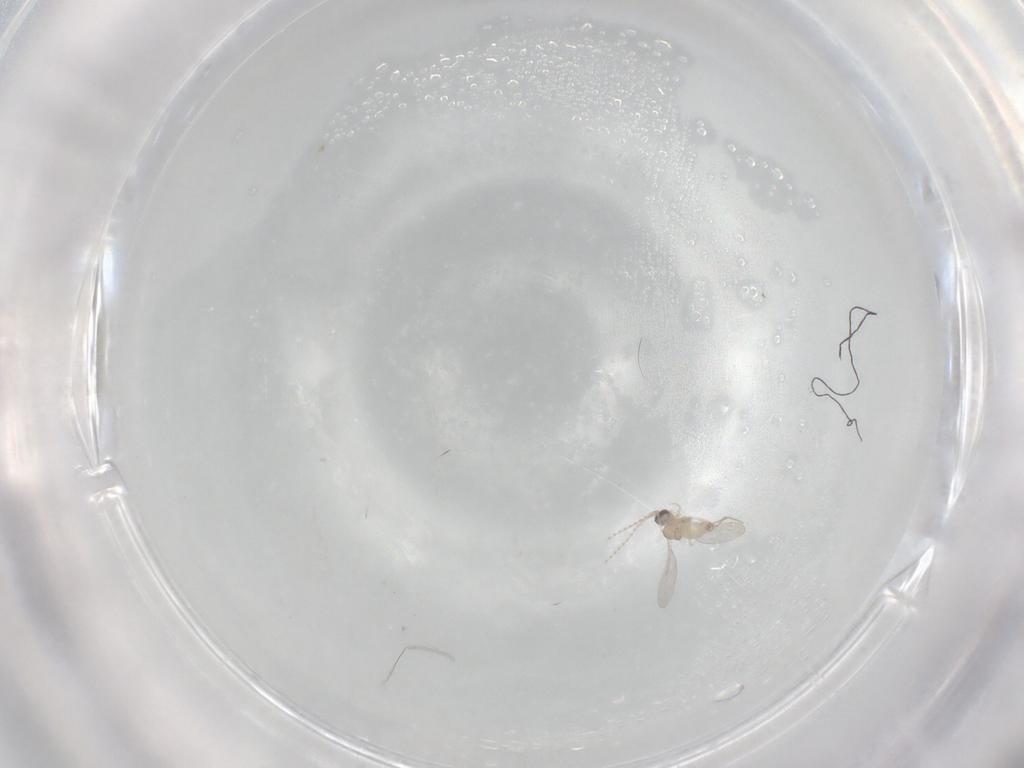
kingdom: Animalia
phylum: Arthropoda
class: Insecta
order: Diptera
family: Cecidomyiidae
